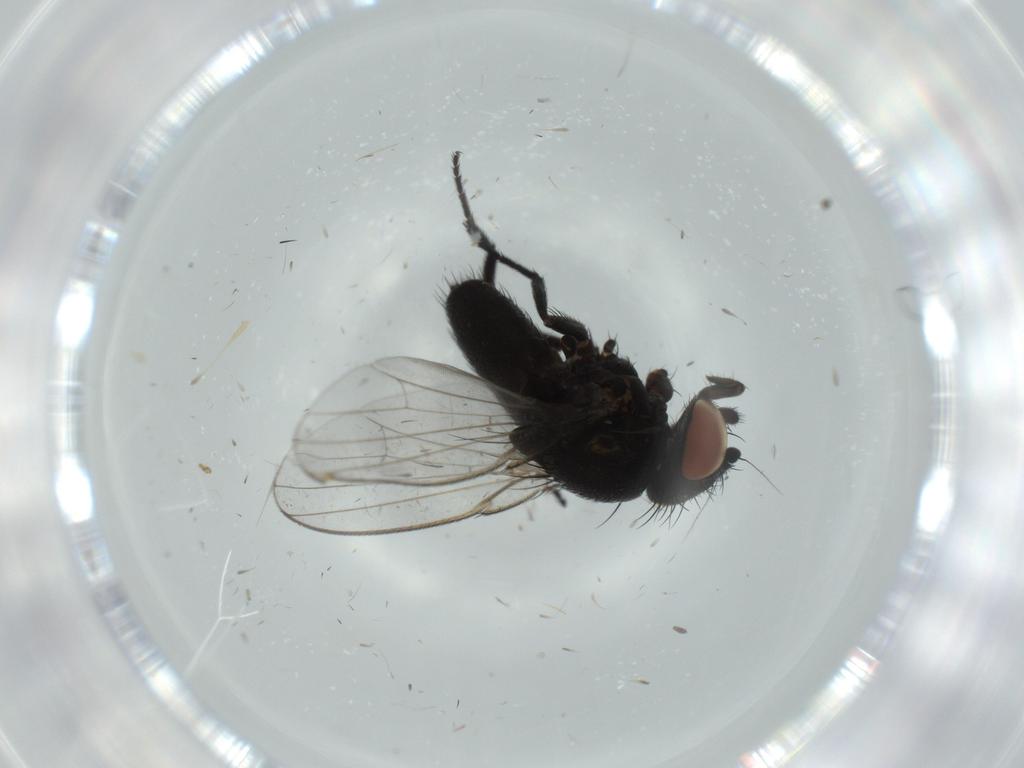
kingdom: Animalia
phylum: Arthropoda
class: Insecta
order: Diptera
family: Milichiidae
